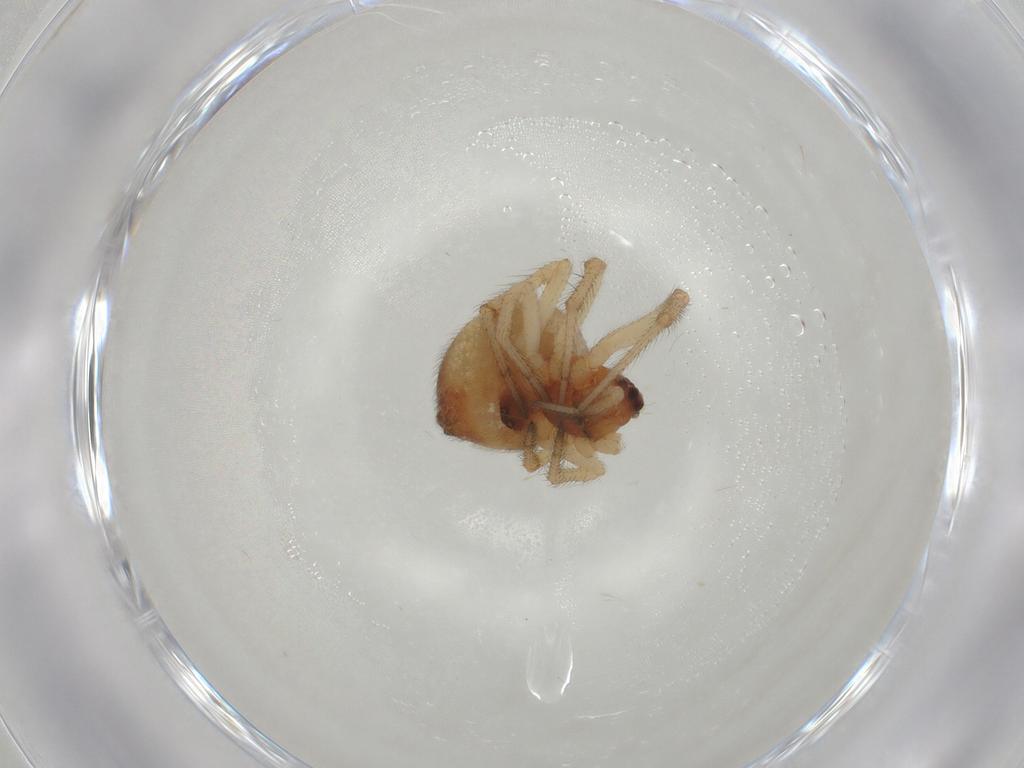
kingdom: Animalia
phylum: Arthropoda
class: Arachnida
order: Araneae
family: Theridiidae
